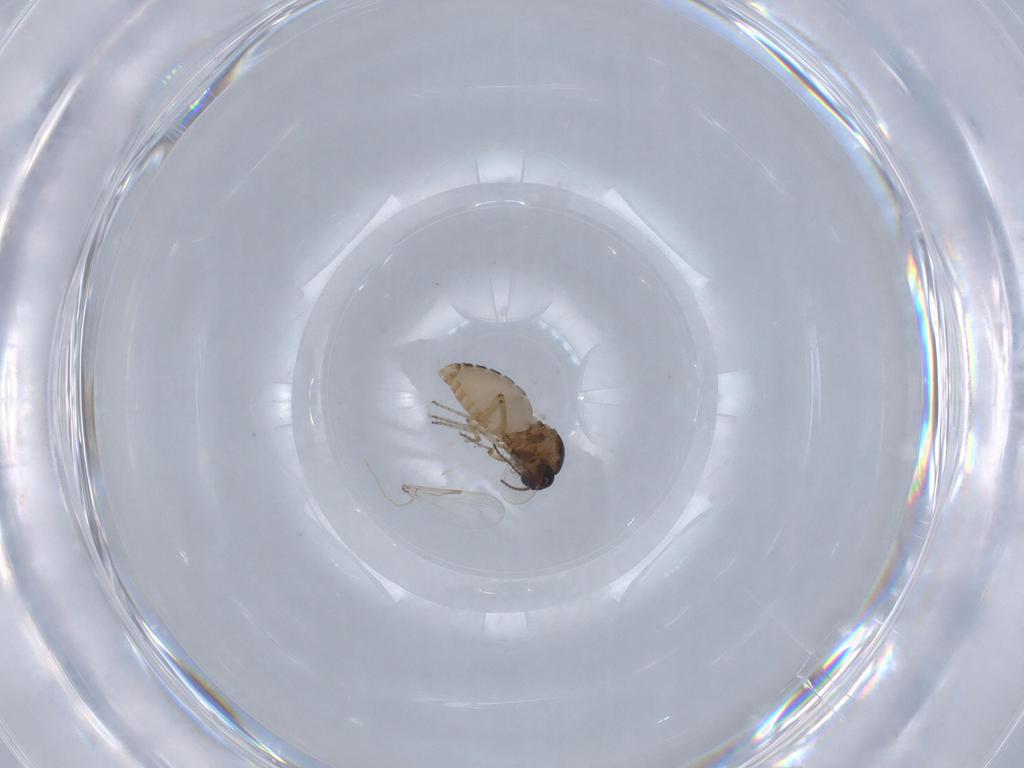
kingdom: Animalia
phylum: Arthropoda
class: Insecta
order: Diptera
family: Ceratopogonidae
